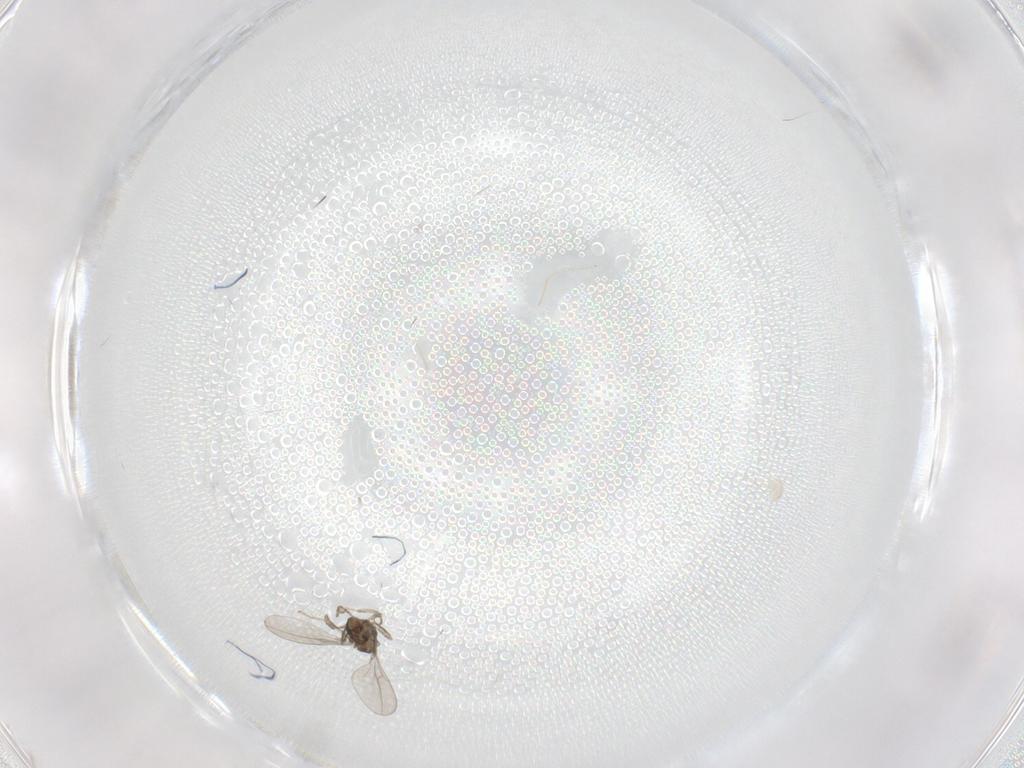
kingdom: Animalia
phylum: Arthropoda
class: Insecta
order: Diptera
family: Cecidomyiidae
